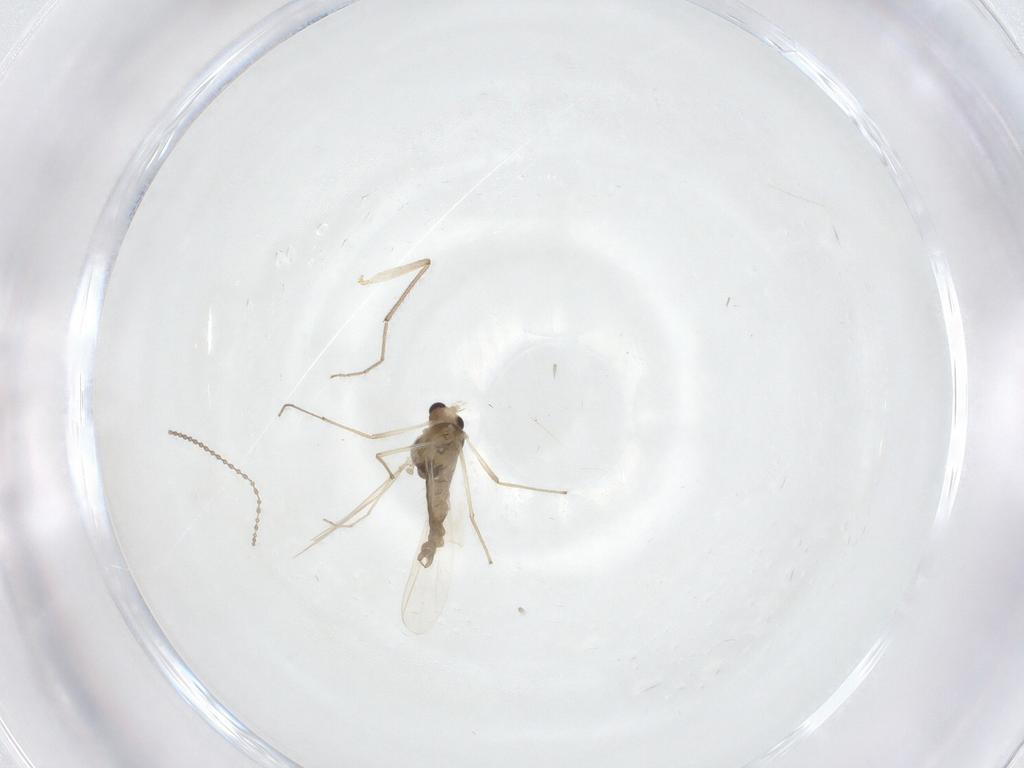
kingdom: Animalia
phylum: Arthropoda
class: Insecta
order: Diptera
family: Chironomidae
